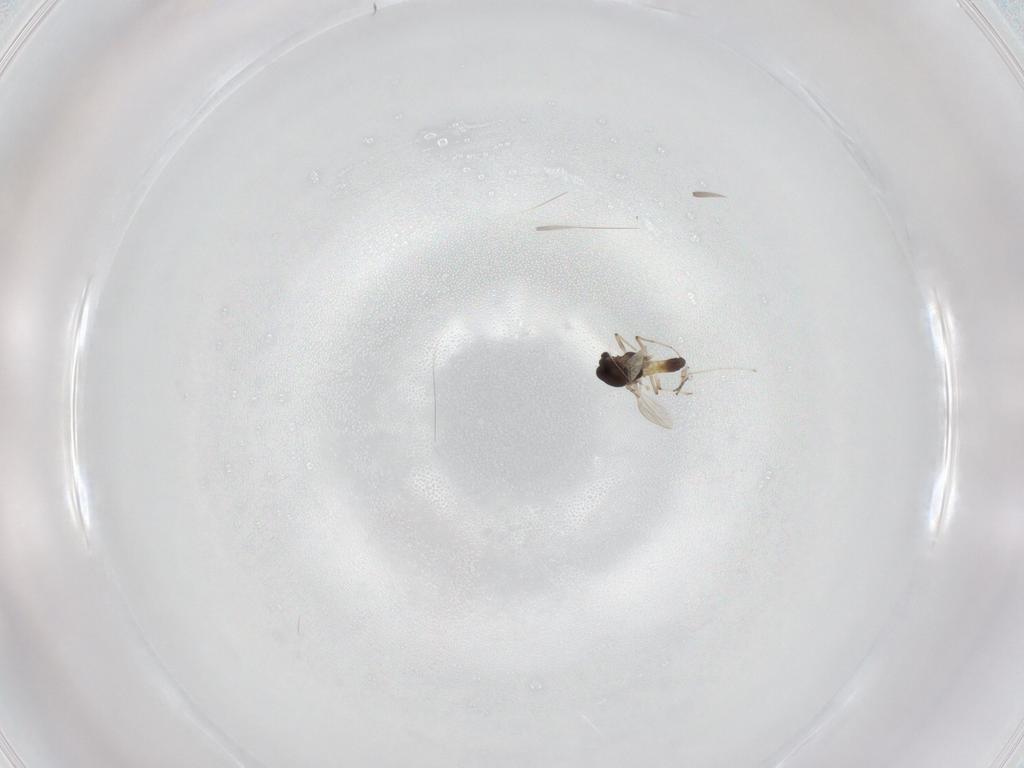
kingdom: Animalia
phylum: Arthropoda
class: Insecta
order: Diptera
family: Chironomidae
